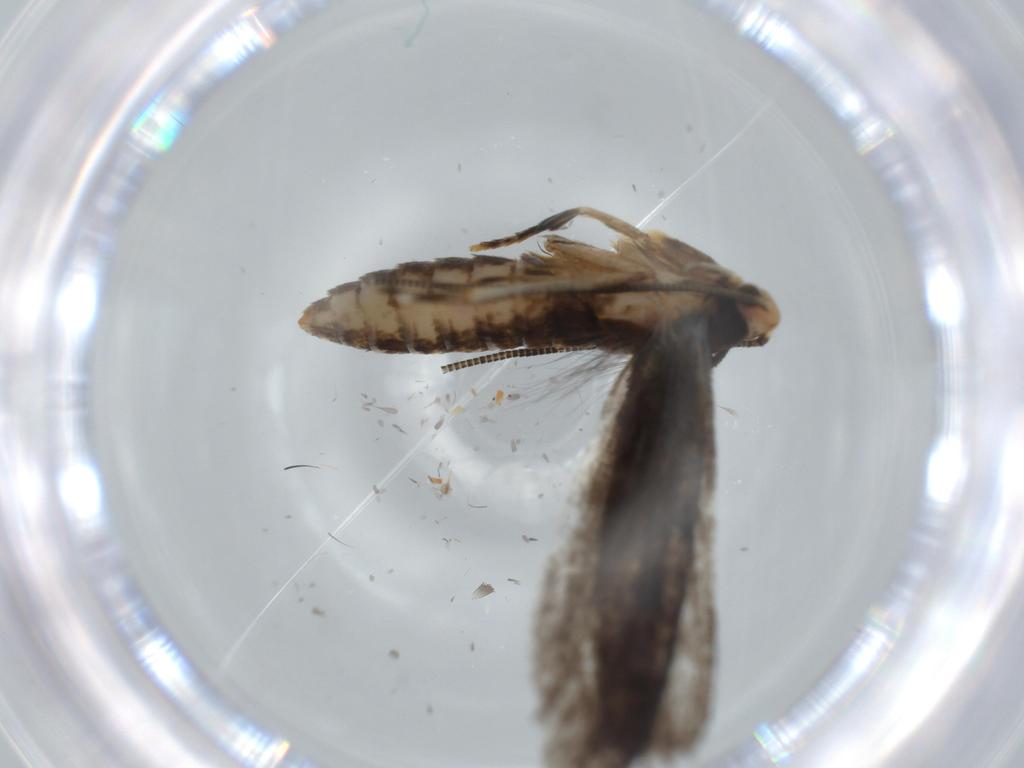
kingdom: Animalia
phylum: Arthropoda
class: Insecta
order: Lepidoptera
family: Tineidae
